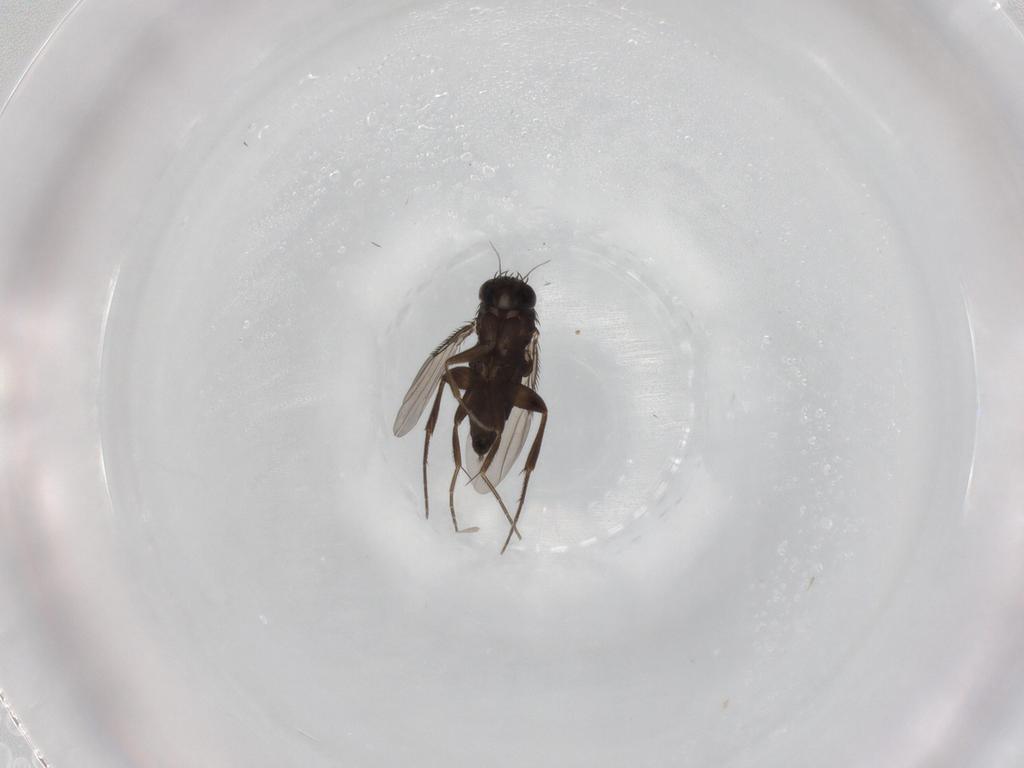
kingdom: Animalia
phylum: Arthropoda
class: Insecta
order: Diptera
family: Phoridae
